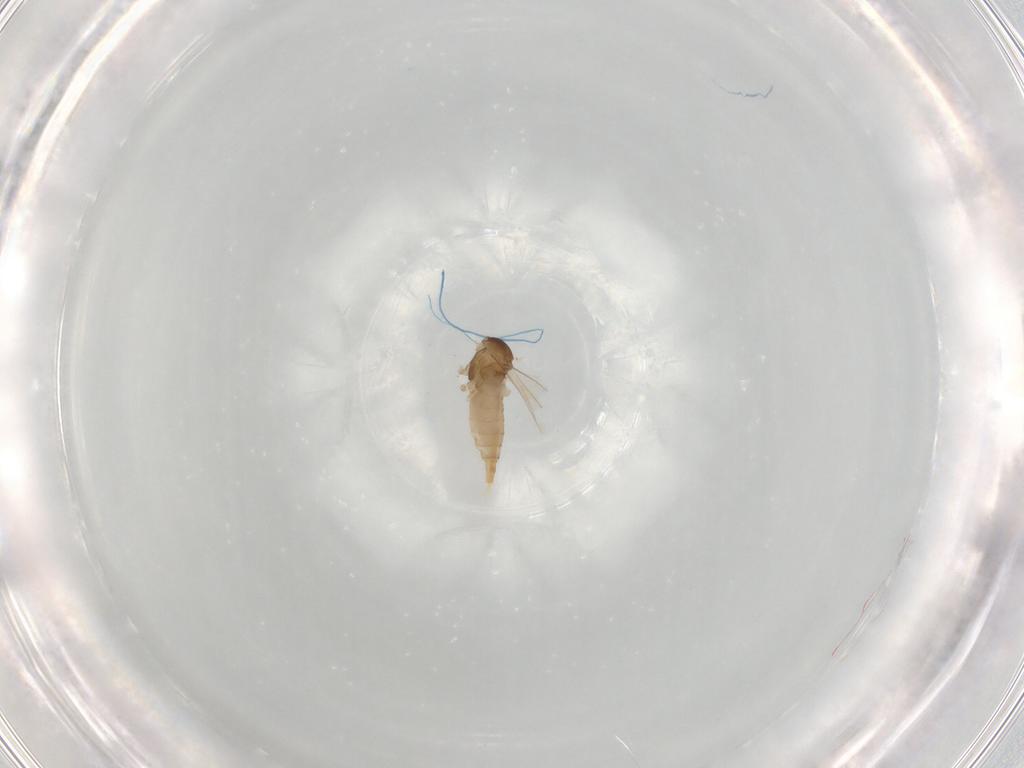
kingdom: Animalia
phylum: Arthropoda
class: Insecta
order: Diptera
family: Cecidomyiidae
